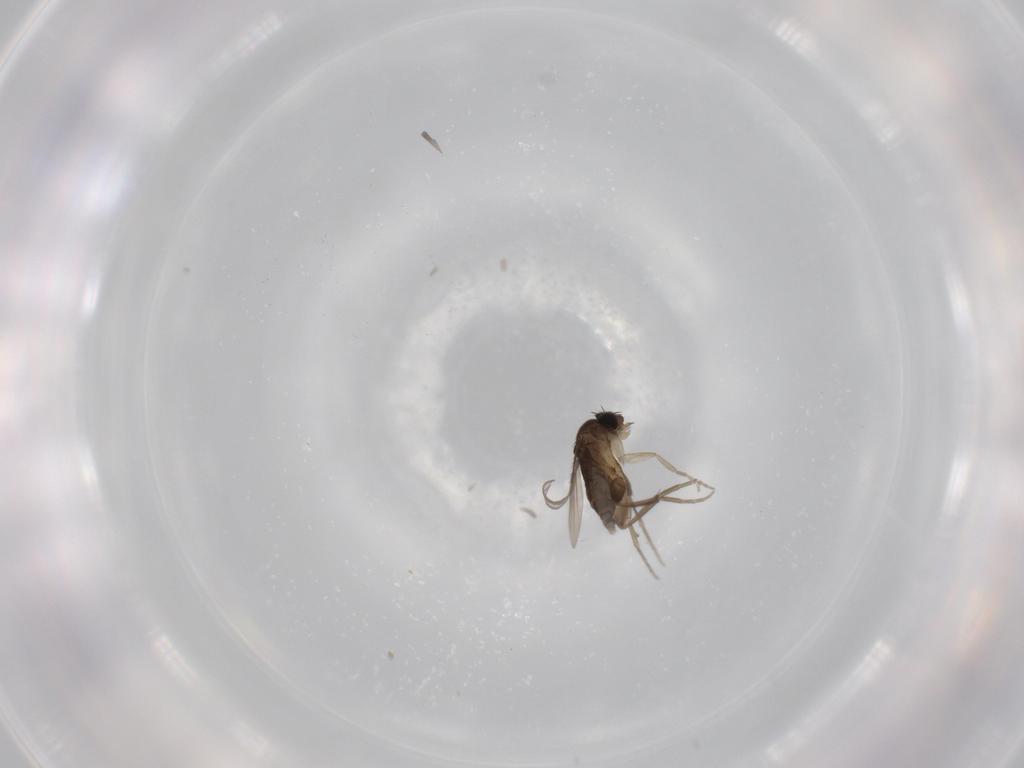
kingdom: Animalia
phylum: Arthropoda
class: Insecta
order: Diptera
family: Phoridae
